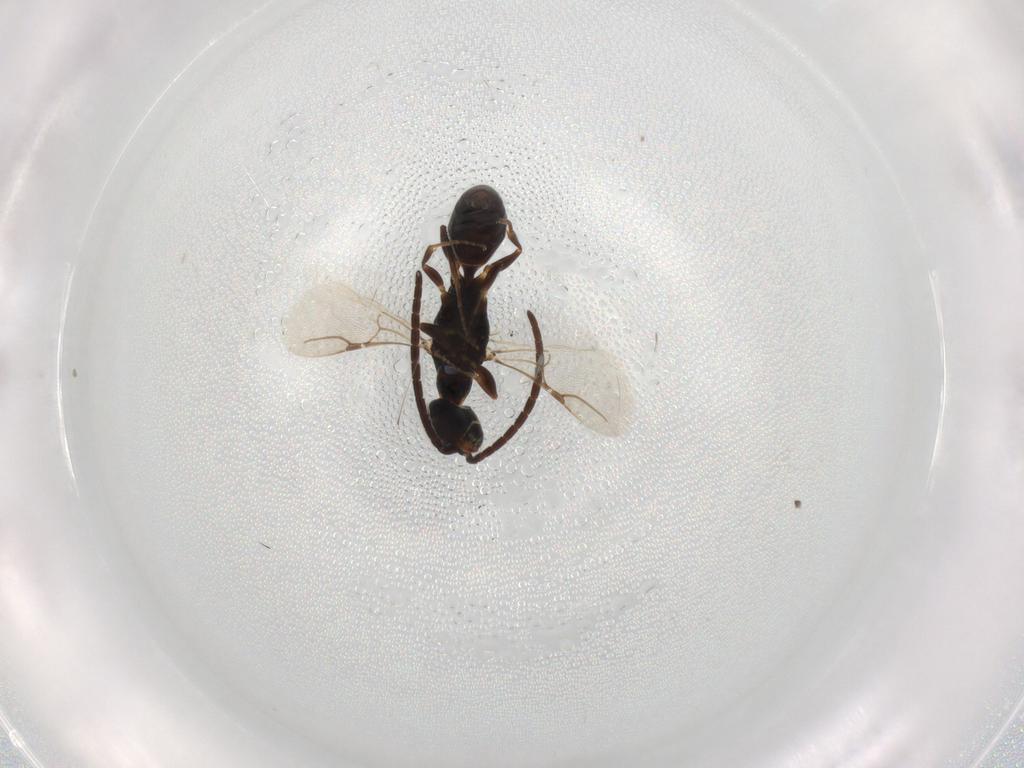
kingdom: Animalia
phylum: Arthropoda
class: Insecta
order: Hymenoptera
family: Bethylidae
